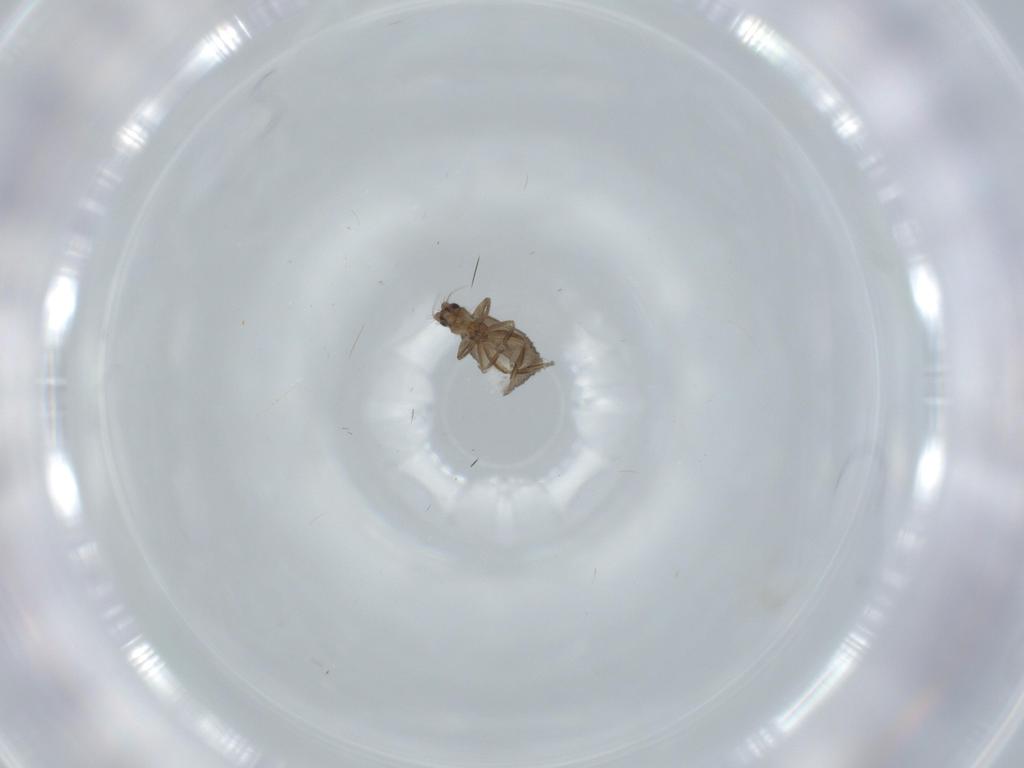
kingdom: Animalia
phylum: Arthropoda
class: Insecta
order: Diptera
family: Phoridae
